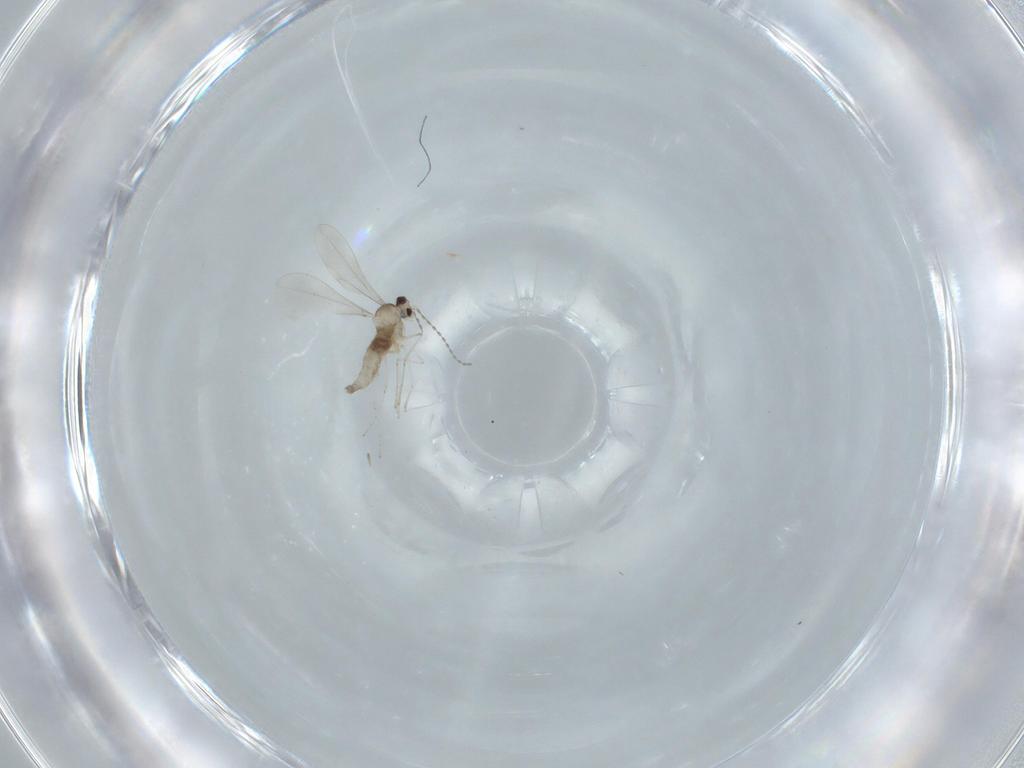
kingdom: Animalia
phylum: Arthropoda
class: Insecta
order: Diptera
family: Cecidomyiidae
